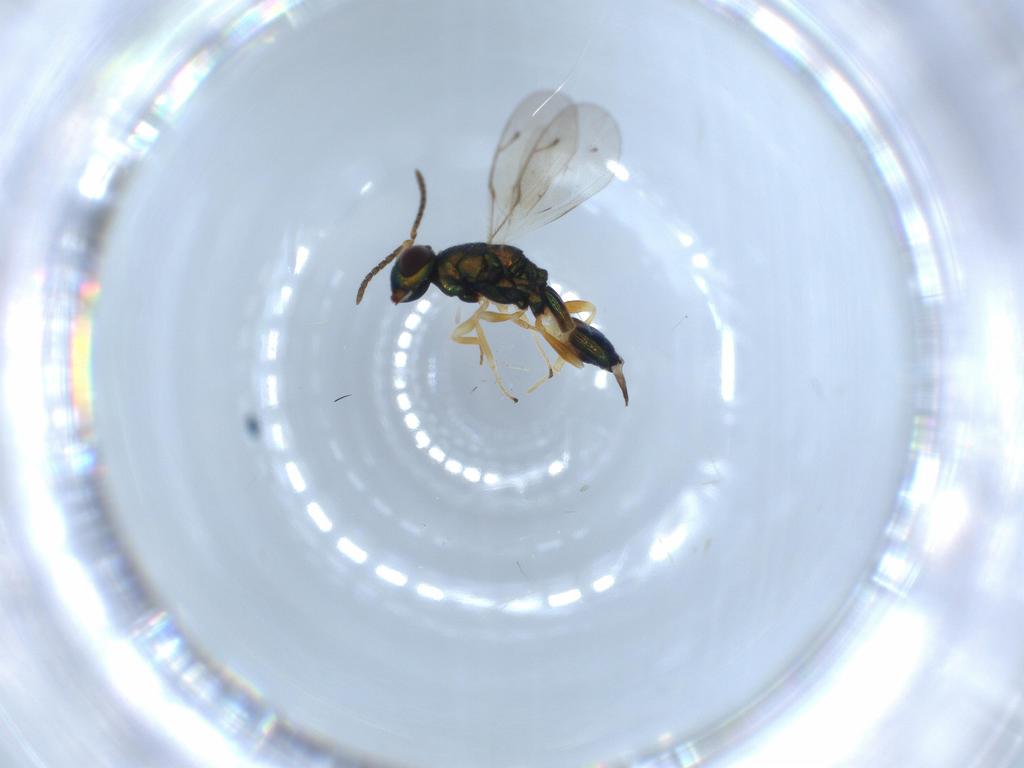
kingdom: Animalia
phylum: Arthropoda
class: Insecta
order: Hymenoptera
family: Pteromalidae
